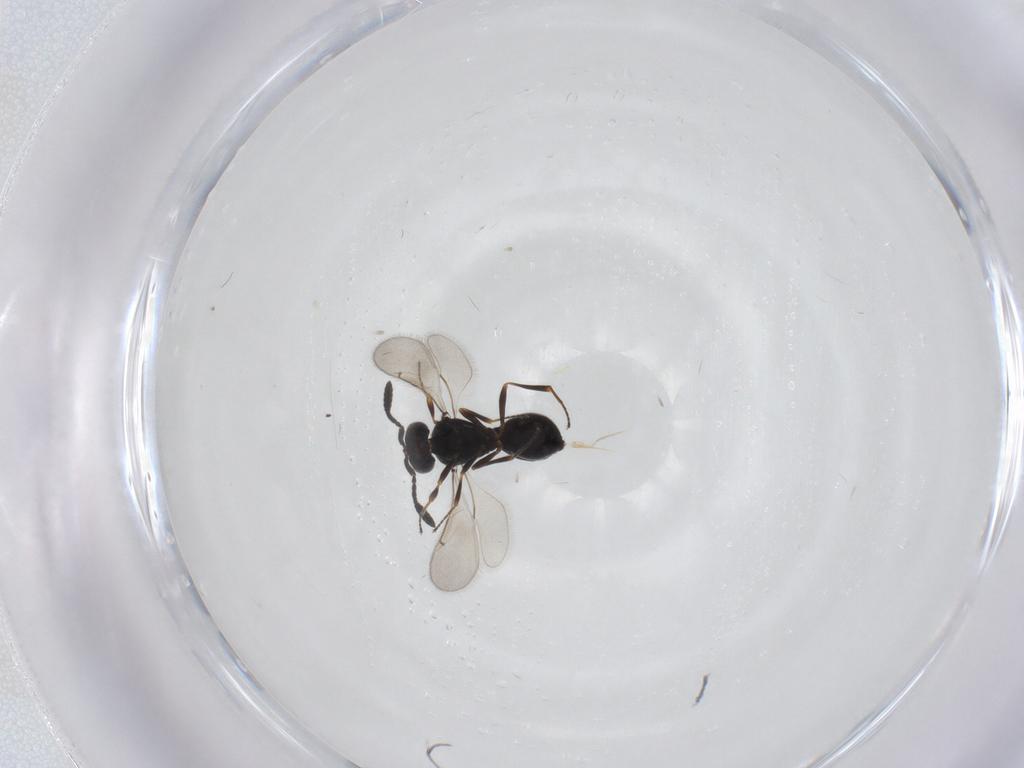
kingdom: Animalia
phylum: Arthropoda
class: Insecta
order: Hymenoptera
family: Scelionidae
